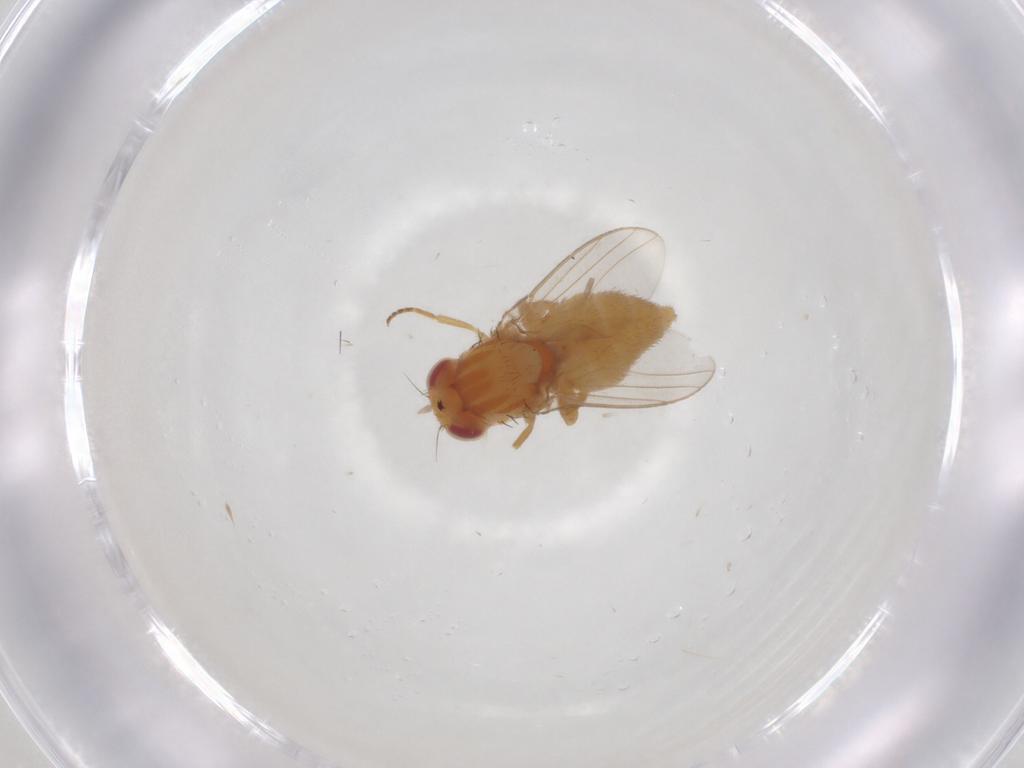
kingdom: Animalia
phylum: Arthropoda
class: Insecta
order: Diptera
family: Chloropidae
